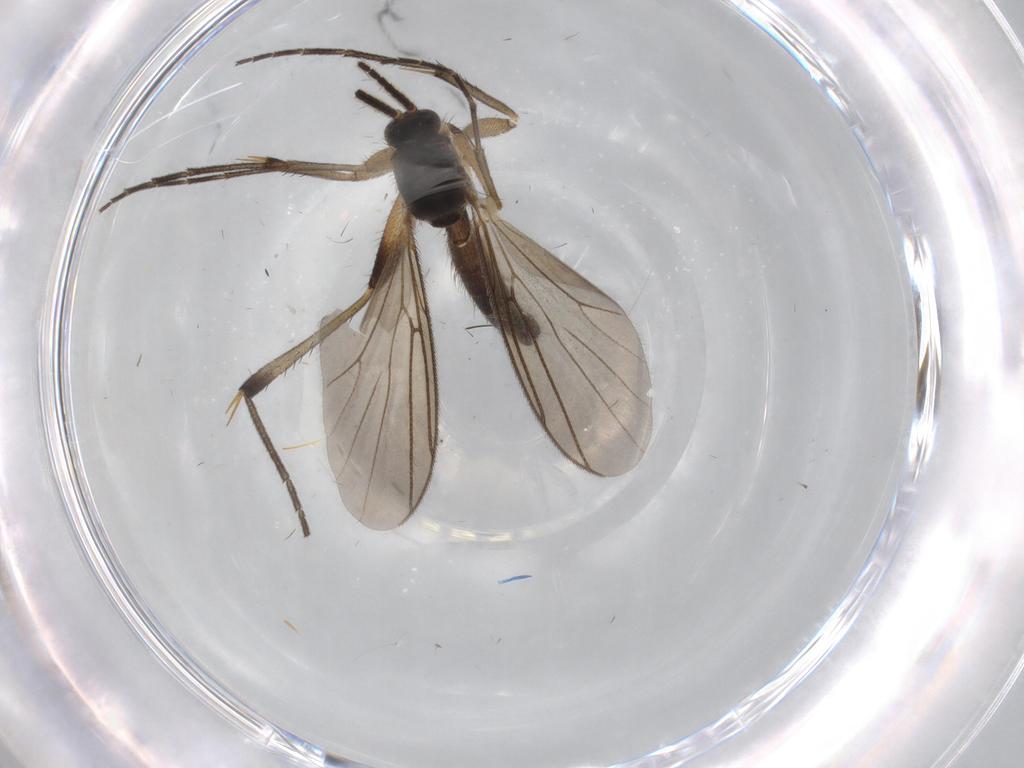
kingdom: Animalia
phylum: Arthropoda
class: Insecta
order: Diptera
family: Mycetophilidae
